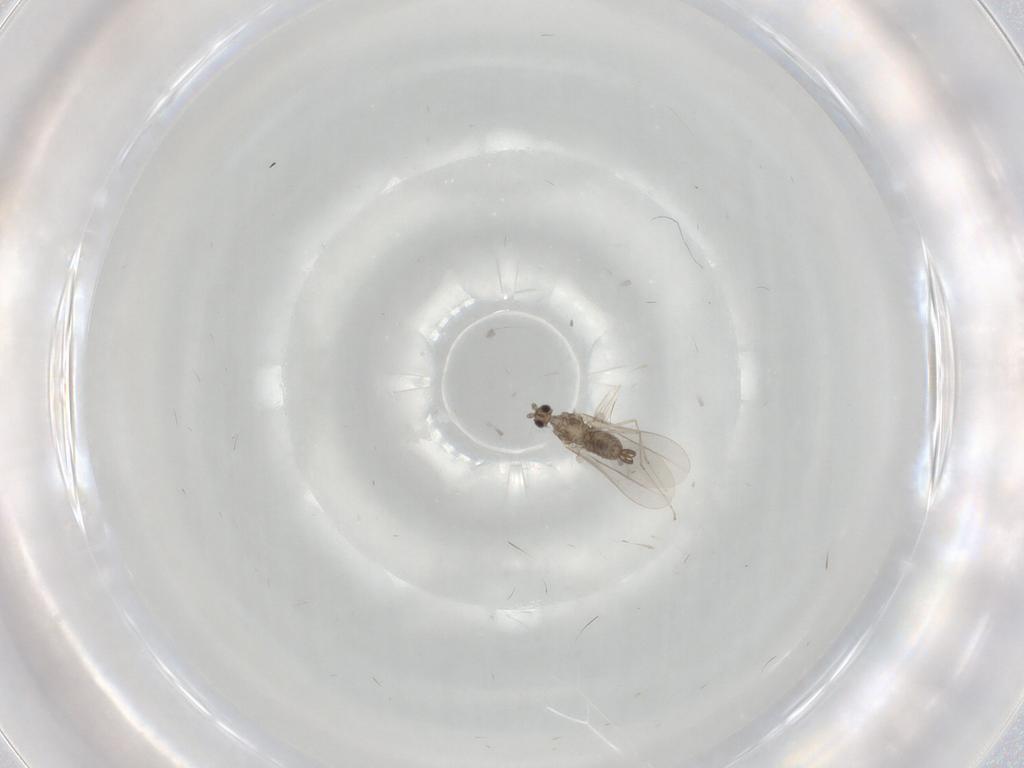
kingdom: Animalia
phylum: Arthropoda
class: Insecta
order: Diptera
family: Cecidomyiidae
